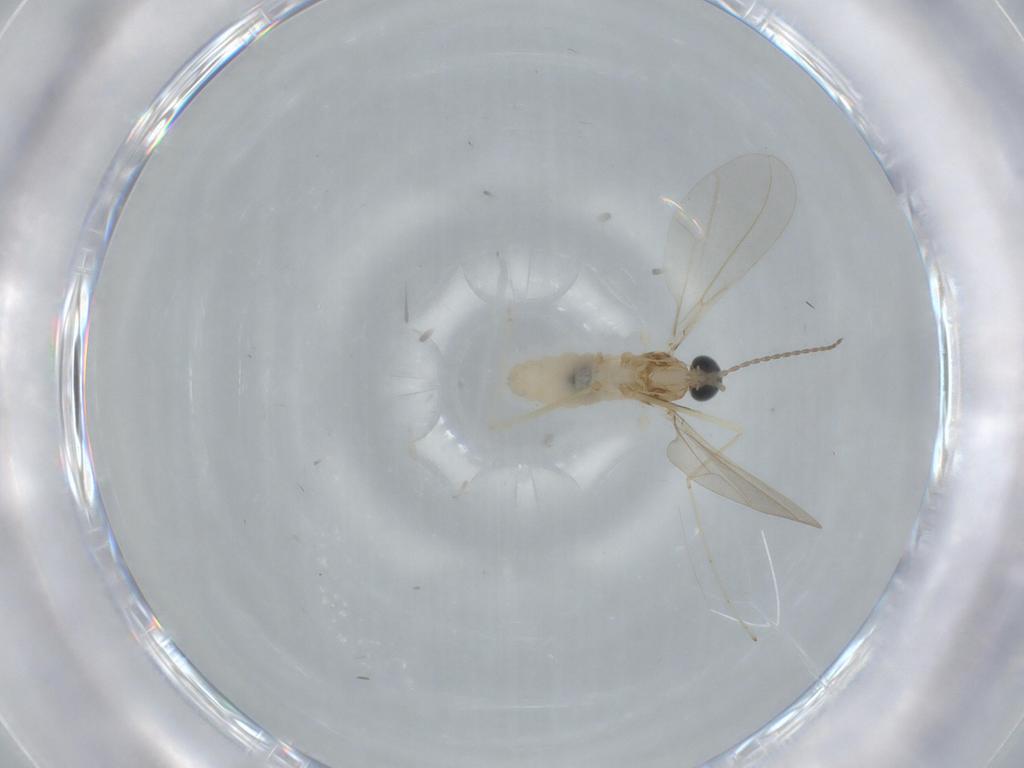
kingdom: Animalia
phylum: Arthropoda
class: Insecta
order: Diptera
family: Cecidomyiidae
